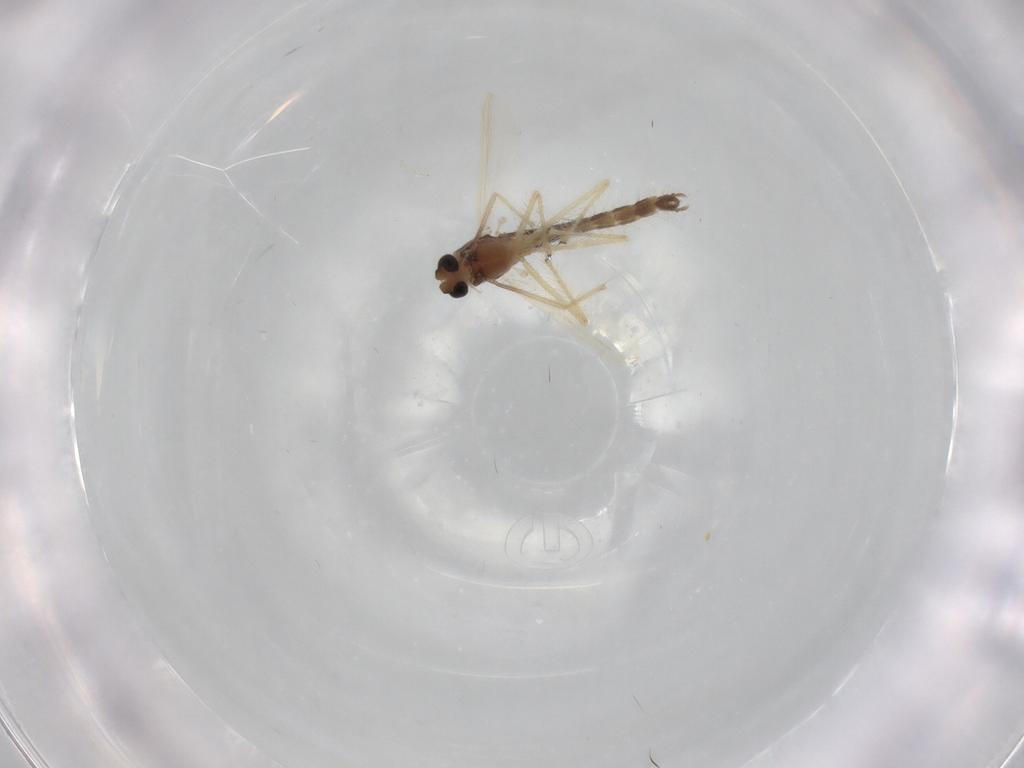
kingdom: Animalia
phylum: Arthropoda
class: Insecta
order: Diptera
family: Chironomidae
